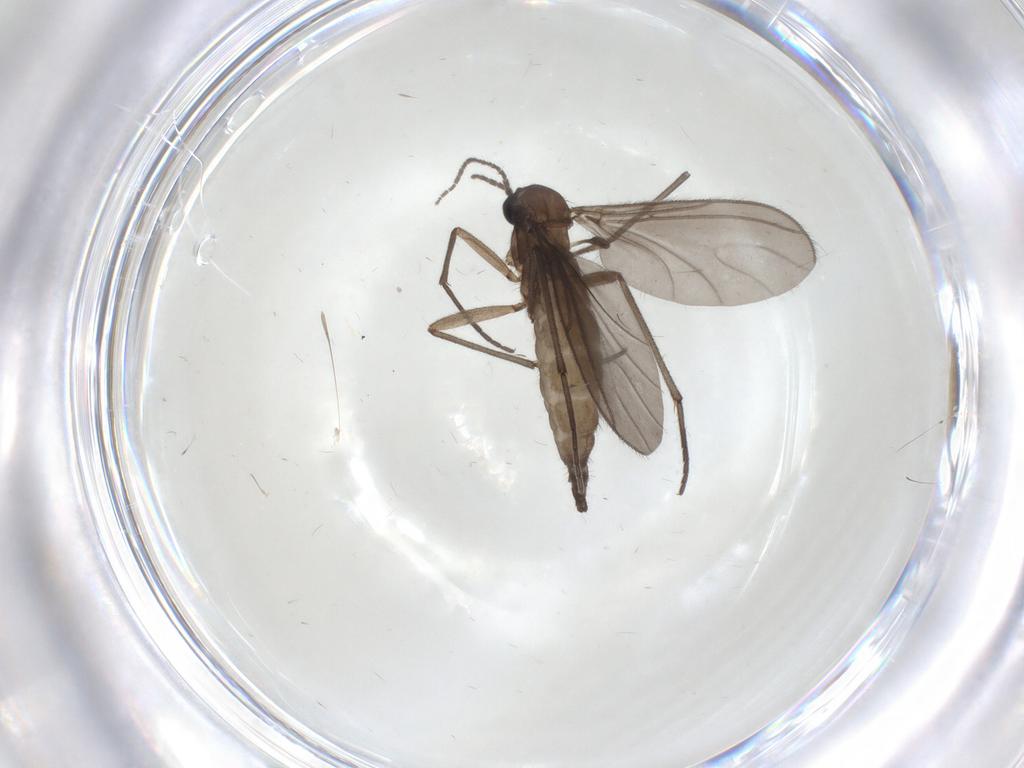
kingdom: Animalia
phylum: Arthropoda
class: Insecta
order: Diptera
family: Sciaridae
